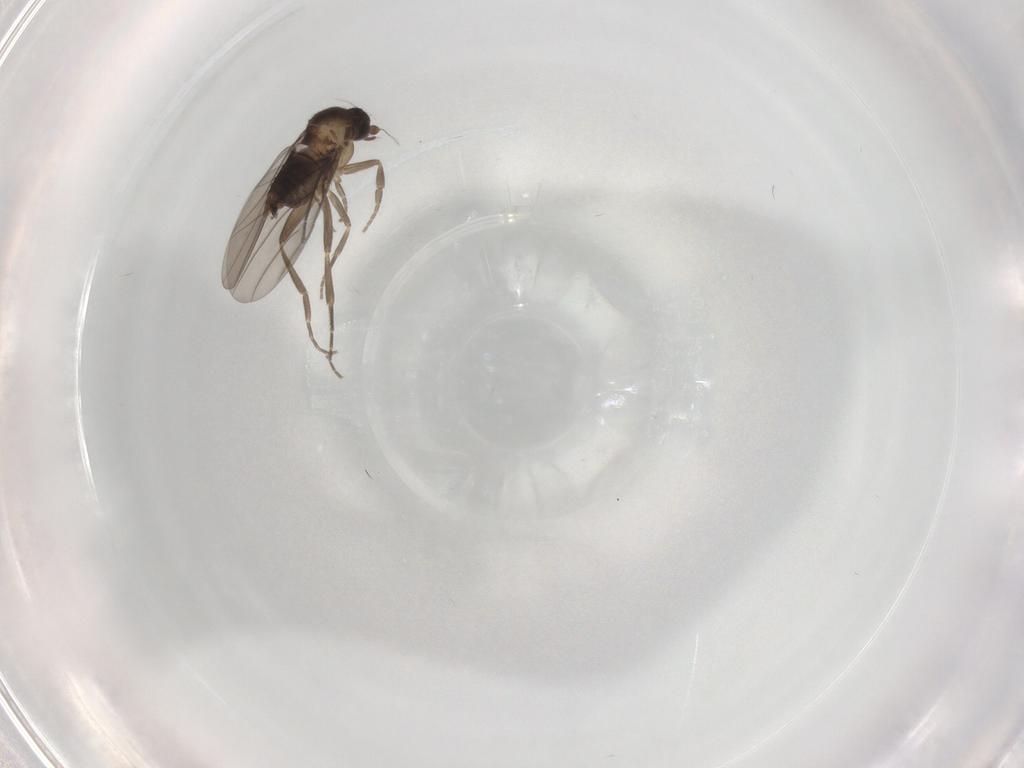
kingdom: Animalia
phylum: Arthropoda
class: Insecta
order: Diptera
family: Phoridae
